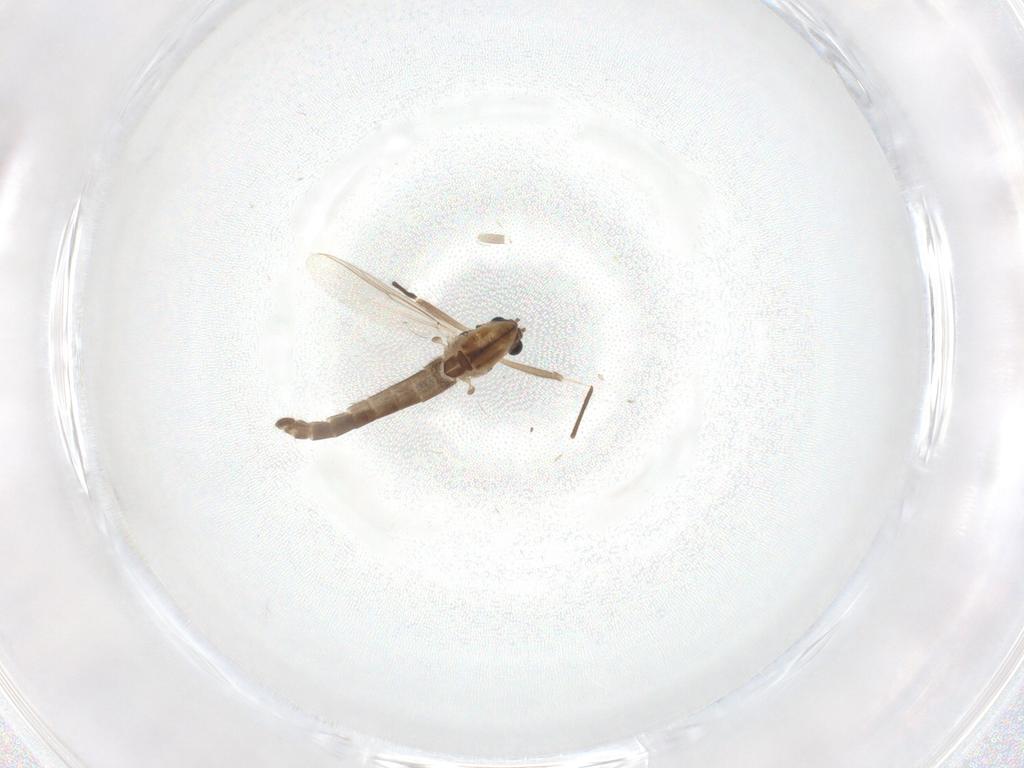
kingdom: Animalia
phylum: Arthropoda
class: Insecta
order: Diptera
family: Chironomidae
